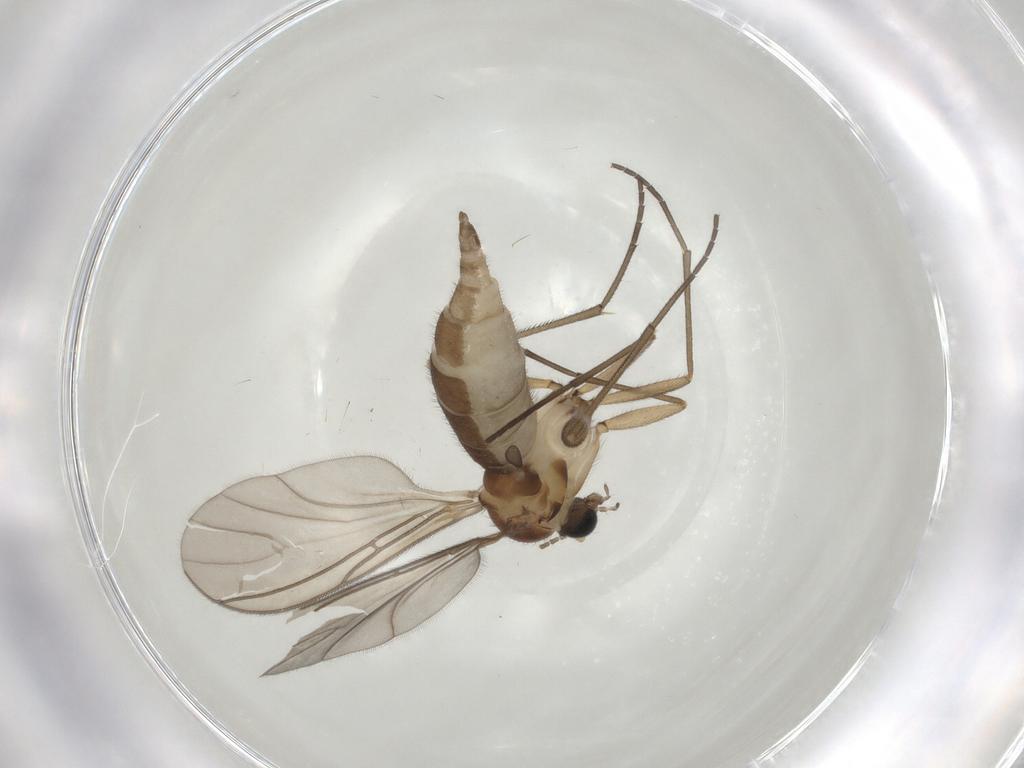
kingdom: Animalia
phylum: Arthropoda
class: Insecta
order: Diptera
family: Sciaridae
